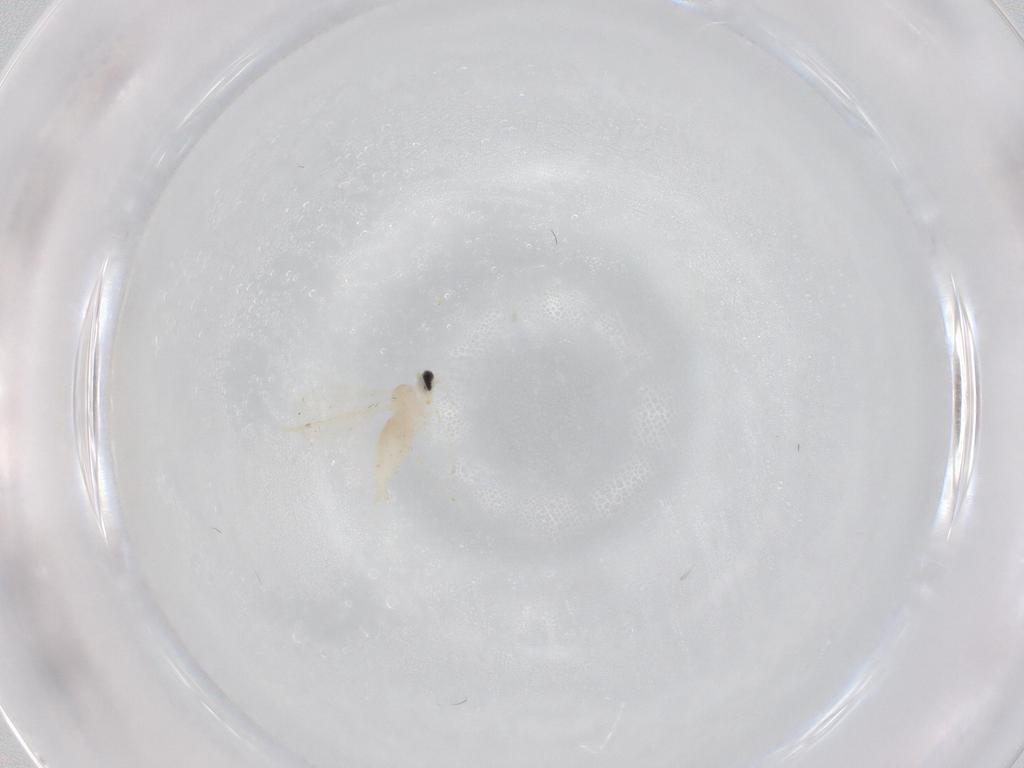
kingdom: Animalia
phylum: Arthropoda
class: Insecta
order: Diptera
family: Cecidomyiidae
